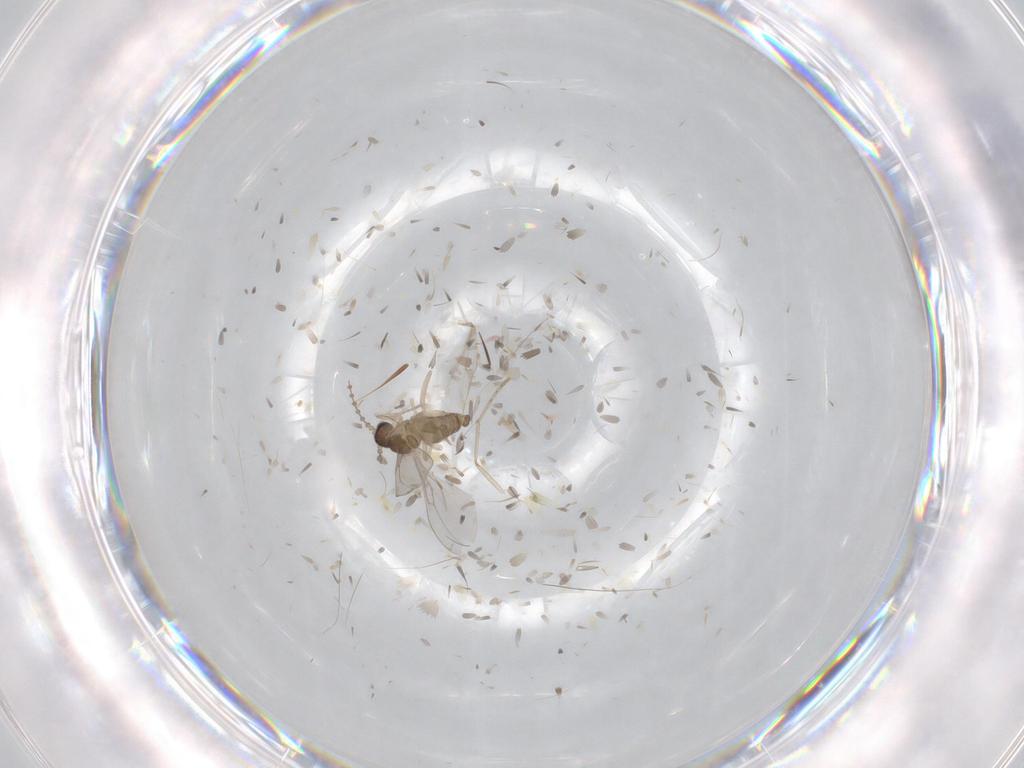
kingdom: Animalia
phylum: Arthropoda
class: Insecta
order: Diptera
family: Cecidomyiidae
